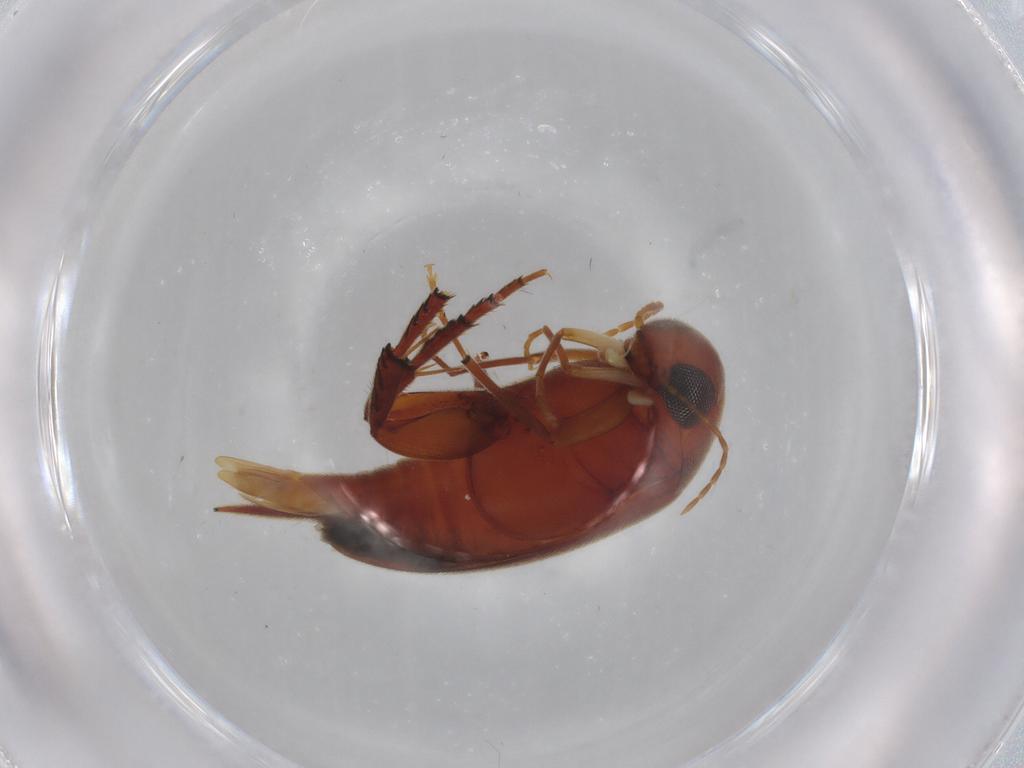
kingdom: Animalia
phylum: Arthropoda
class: Insecta
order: Coleoptera
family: Mordellidae
